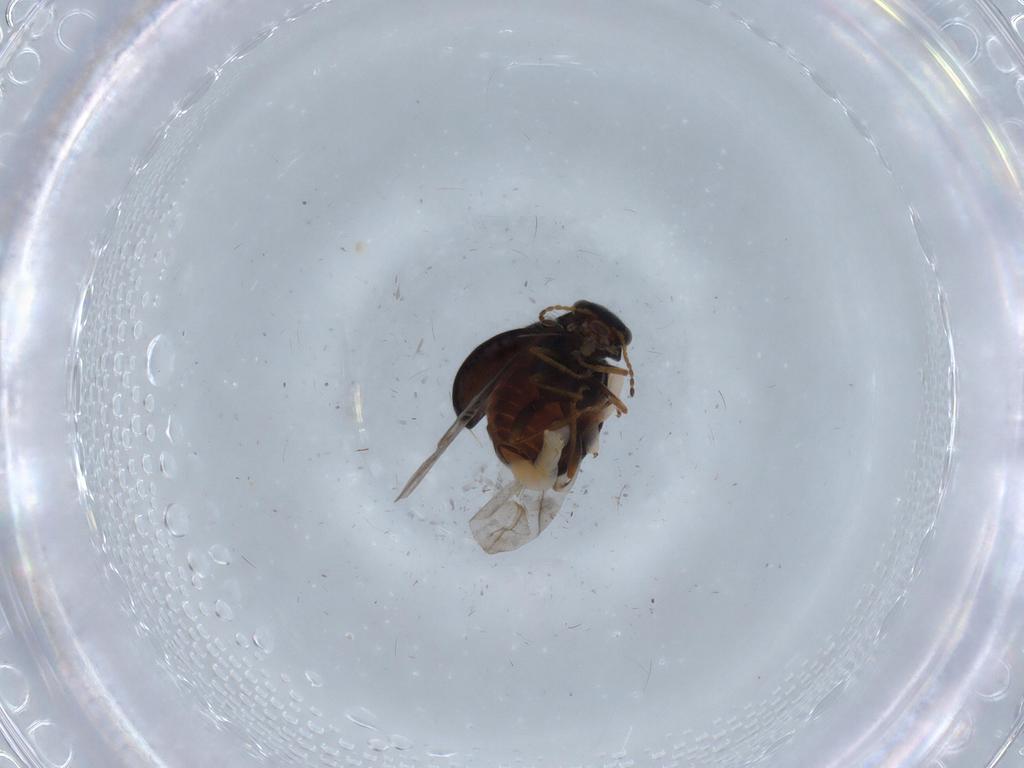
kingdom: Animalia
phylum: Arthropoda
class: Insecta
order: Coleoptera
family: Melyridae
